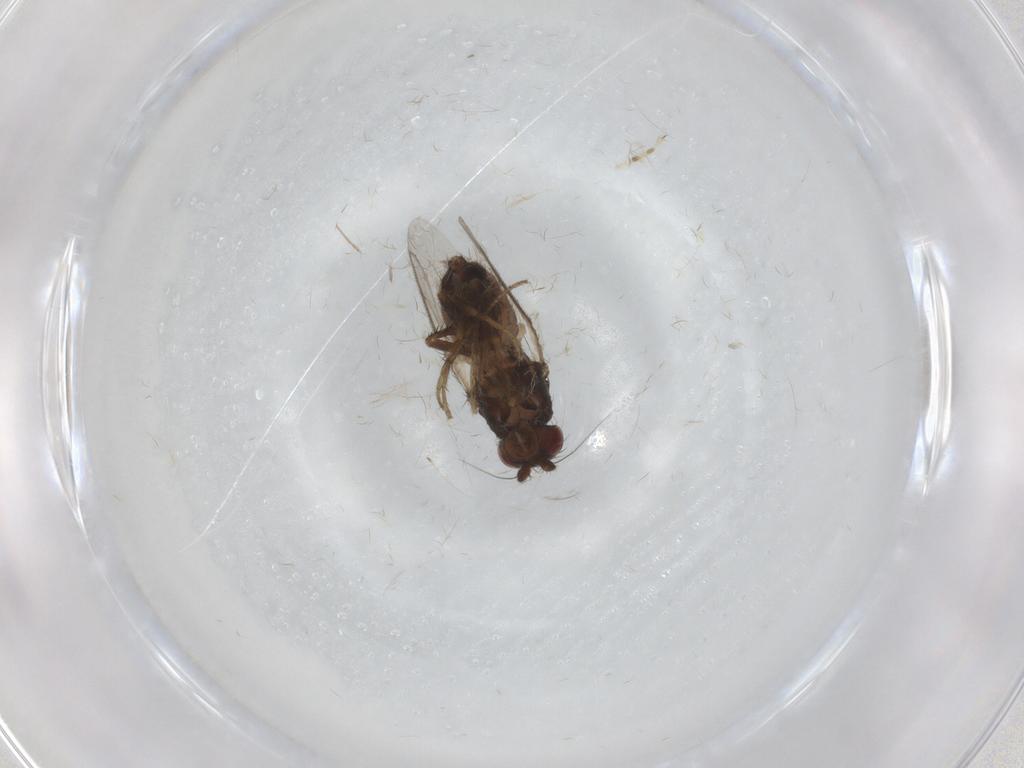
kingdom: Animalia
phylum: Arthropoda
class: Insecta
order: Diptera
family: Sphaeroceridae
